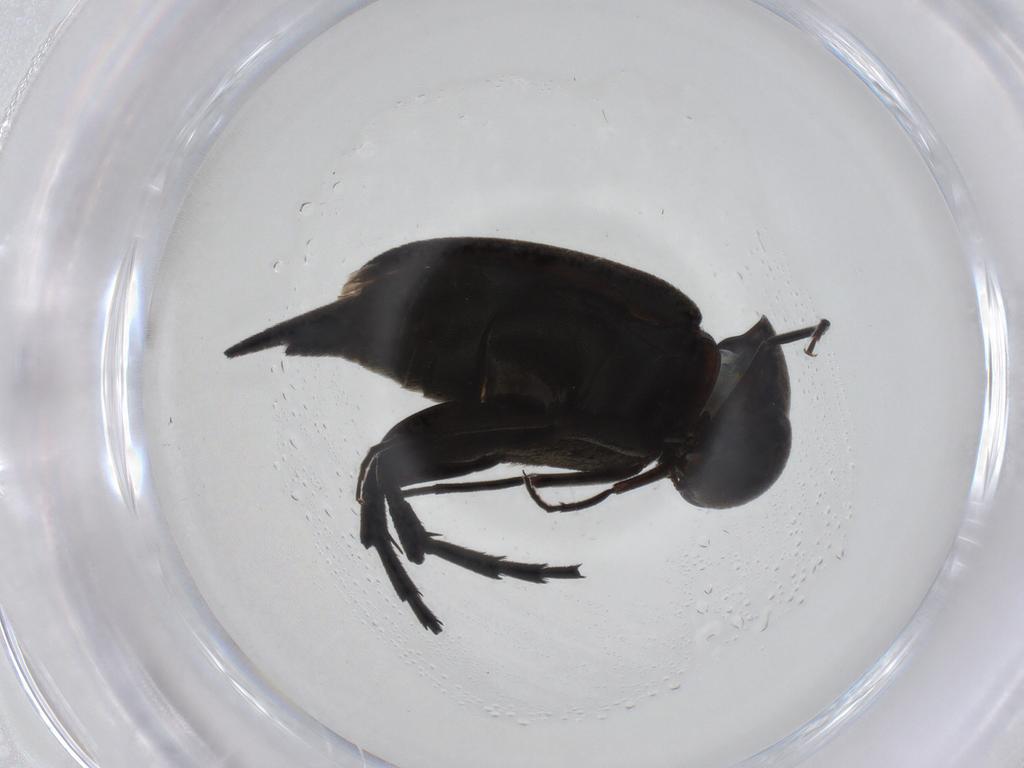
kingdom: Animalia
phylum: Arthropoda
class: Insecta
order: Coleoptera
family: Mordellidae
